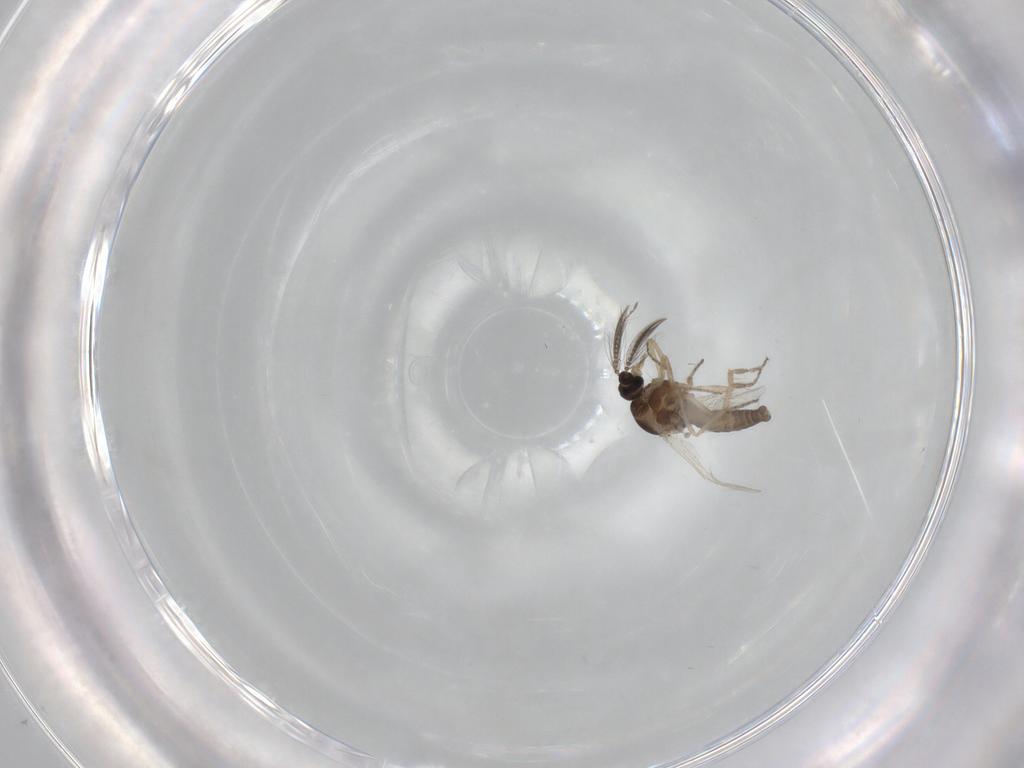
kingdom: Animalia
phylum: Arthropoda
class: Insecta
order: Diptera
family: Ceratopogonidae
